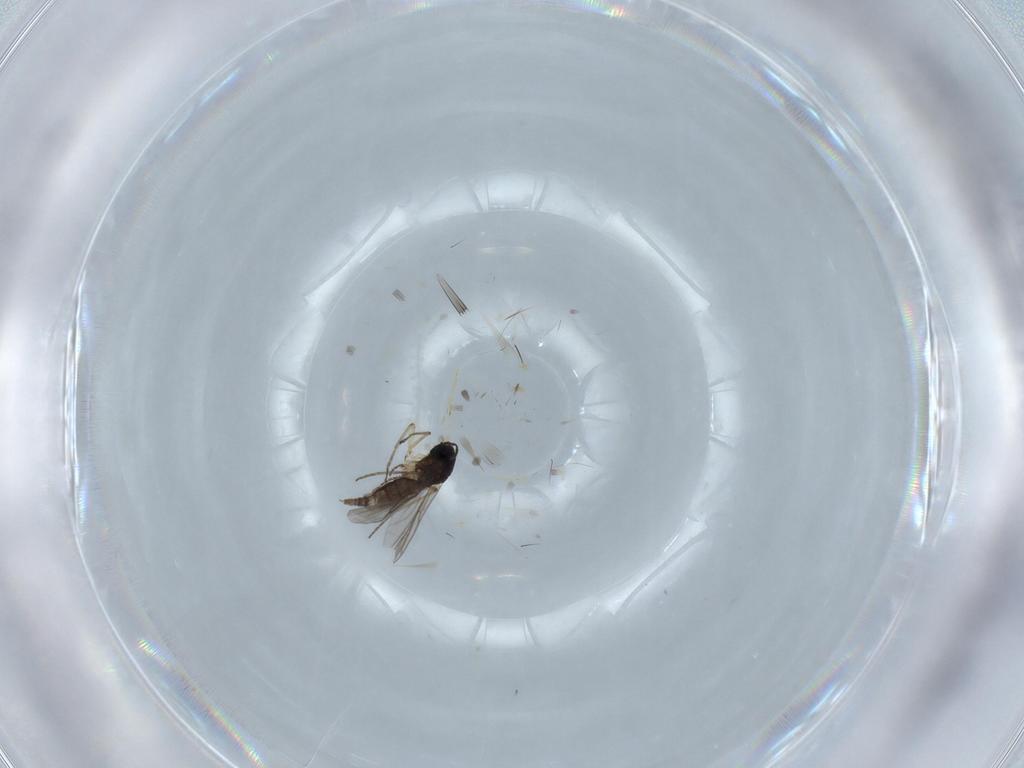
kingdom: Animalia
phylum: Arthropoda
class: Insecta
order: Diptera
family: Sciaridae
